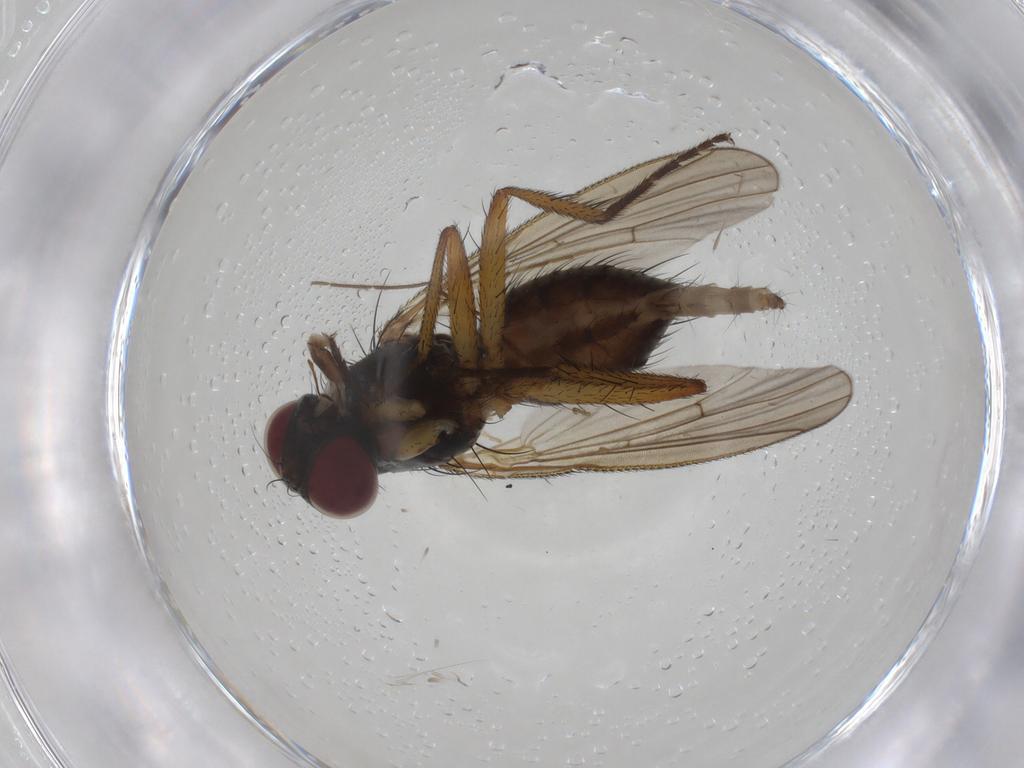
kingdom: Animalia
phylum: Arthropoda
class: Insecta
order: Diptera
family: Muscidae
